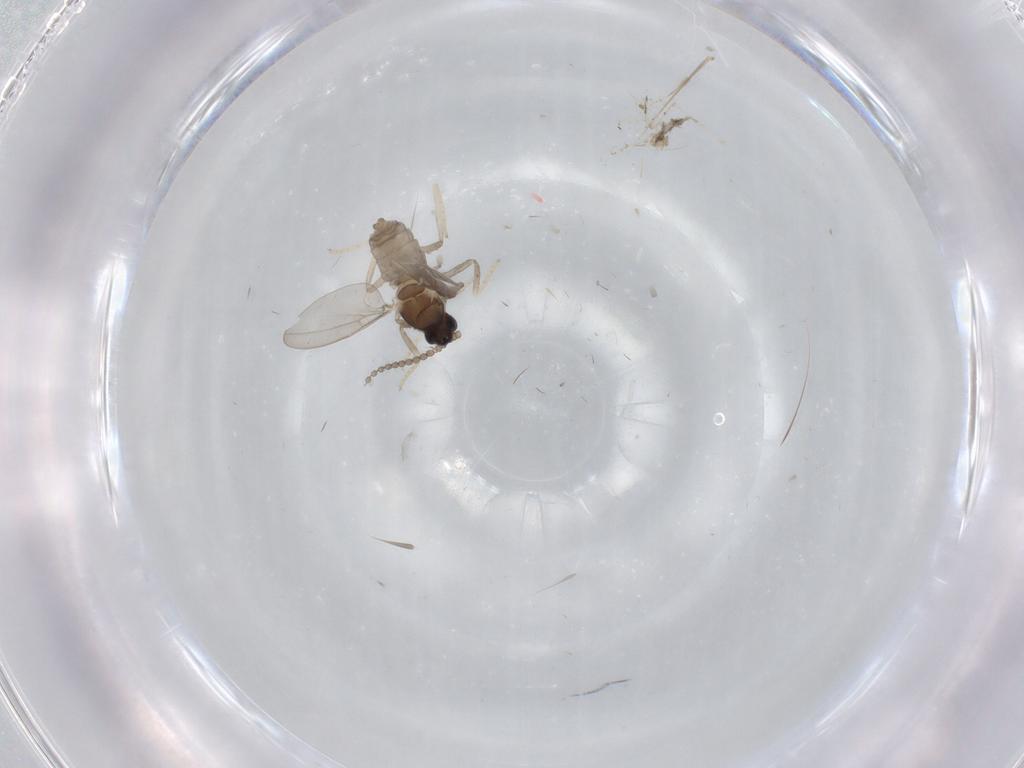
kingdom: Animalia
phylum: Arthropoda
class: Insecta
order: Diptera
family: Cecidomyiidae
